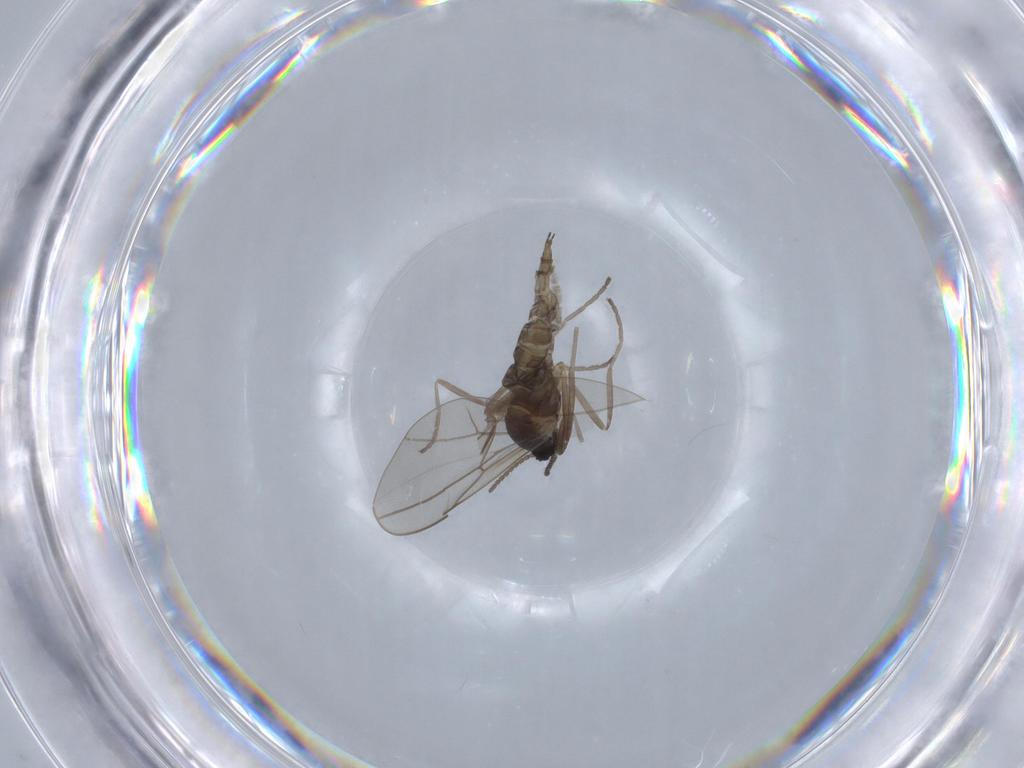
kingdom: Animalia
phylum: Arthropoda
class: Insecta
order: Diptera
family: Cecidomyiidae
